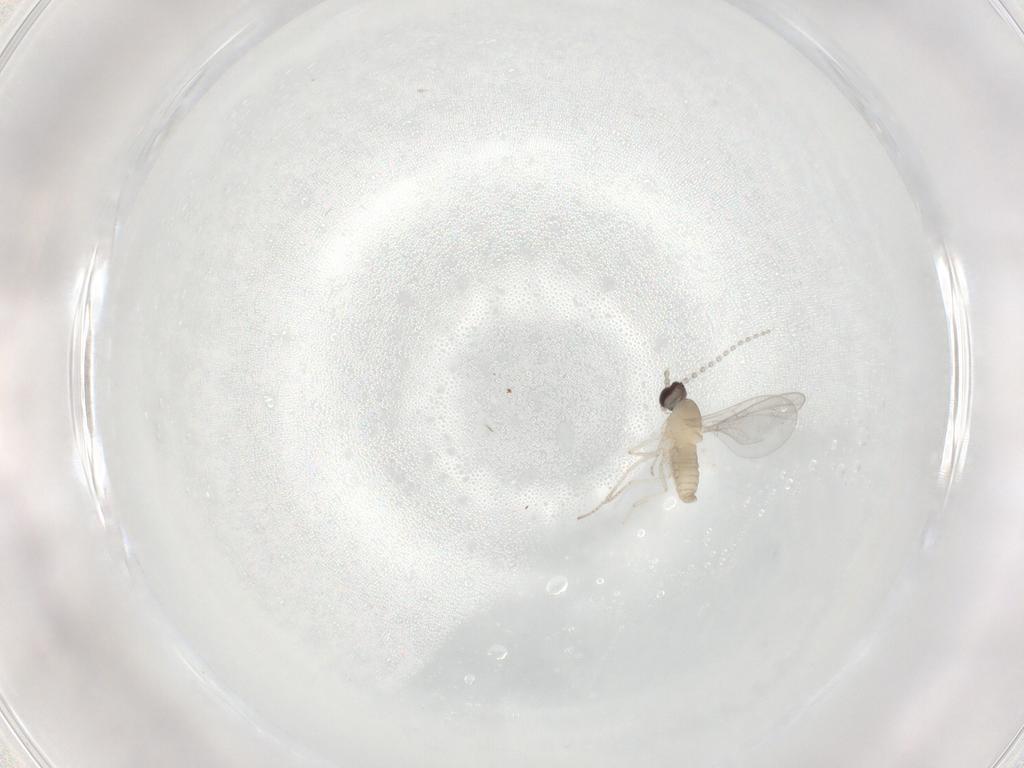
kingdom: Animalia
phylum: Arthropoda
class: Insecta
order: Diptera
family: Cecidomyiidae
